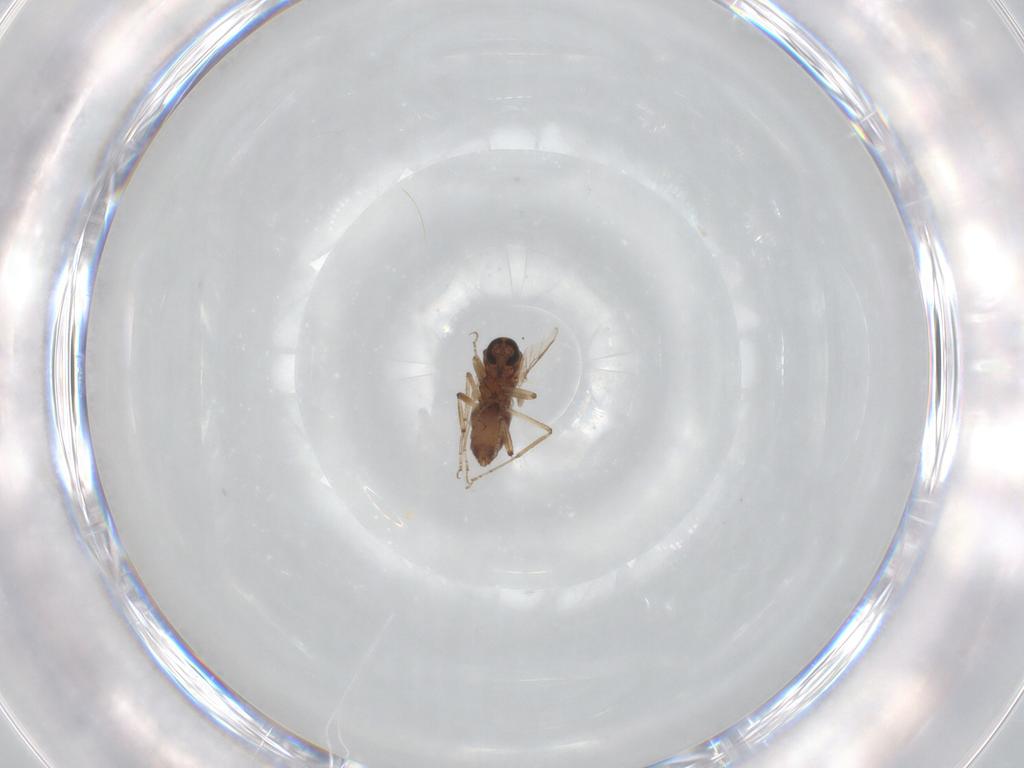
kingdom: Animalia
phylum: Arthropoda
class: Insecta
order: Diptera
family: Ceratopogonidae
